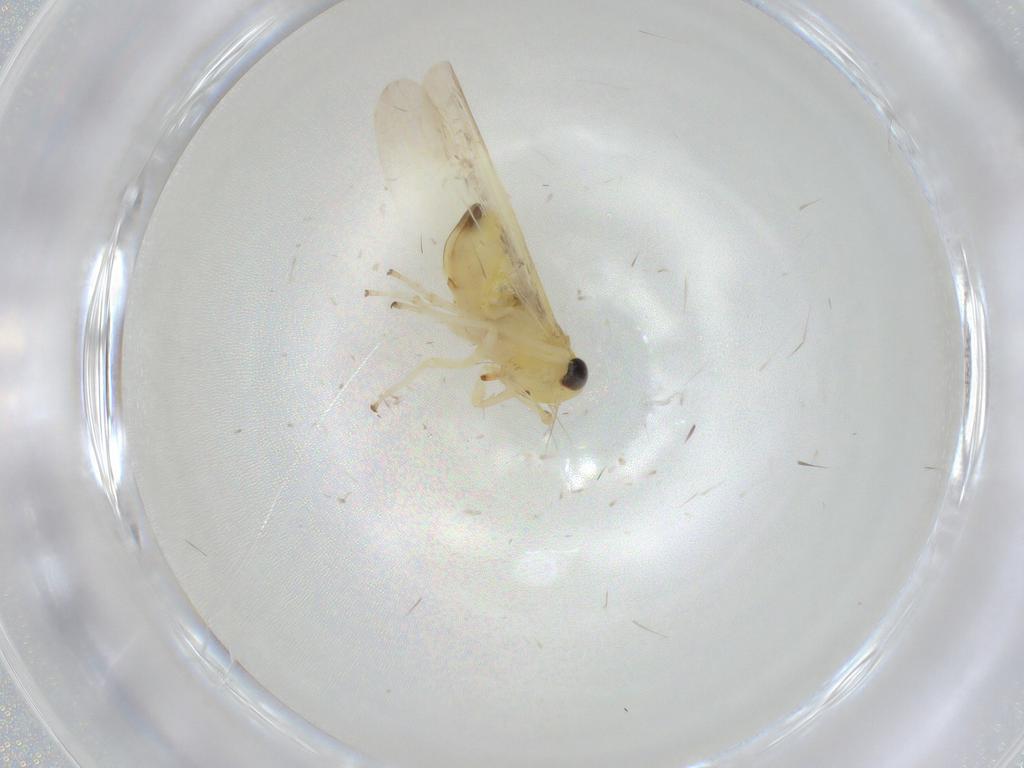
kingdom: Animalia
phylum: Arthropoda
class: Insecta
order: Hemiptera
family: Cicadellidae
